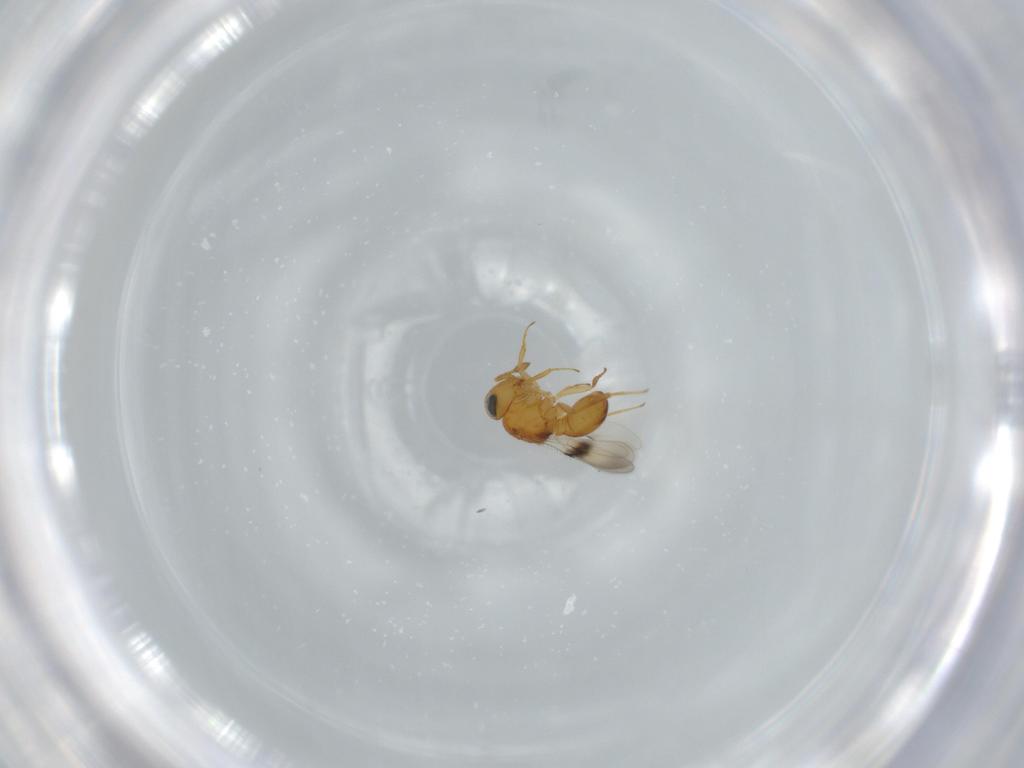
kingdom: Animalia
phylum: Arthropoda
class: Insecta
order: Hymenoptera
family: Scelionidae
